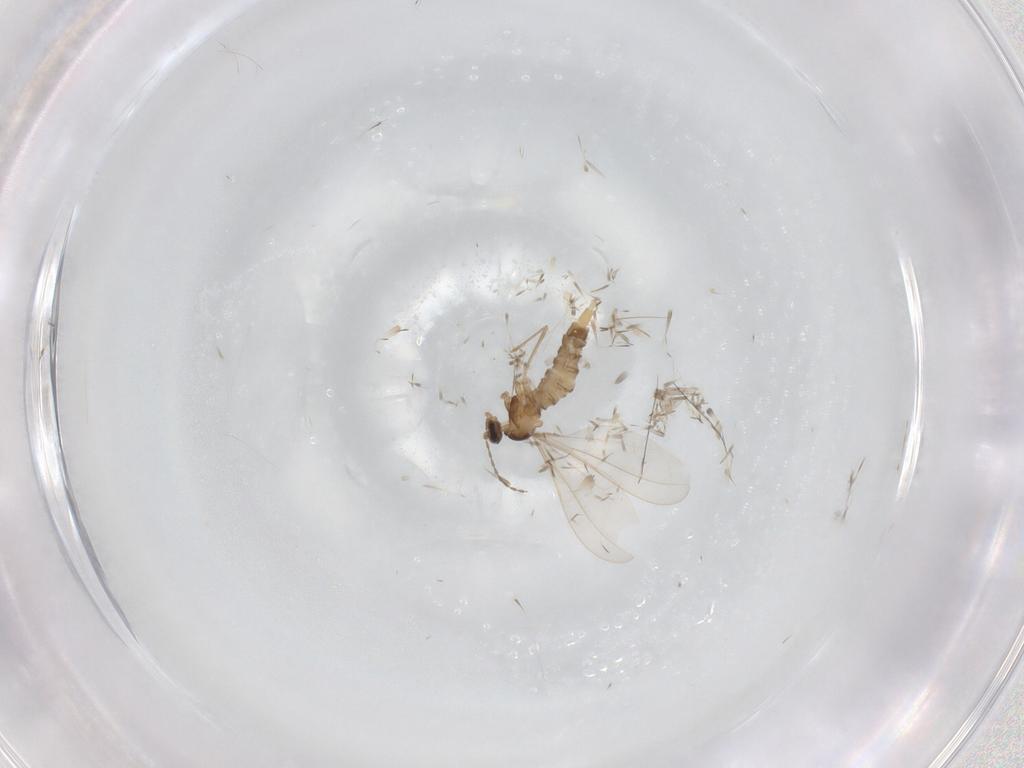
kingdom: Animalia
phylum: Arthropoda
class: Insecta
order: Diptera
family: Cecidomyiidae
